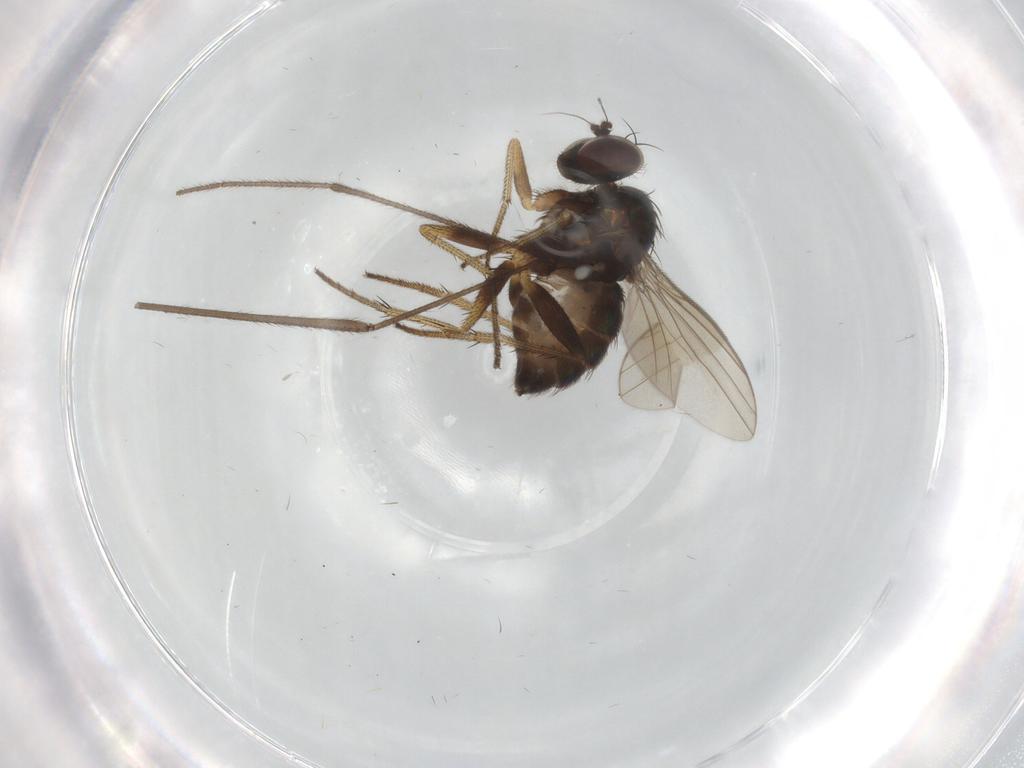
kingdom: Animalia
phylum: Arthropoda
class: Insecta
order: Diptera
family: Limoniidae
